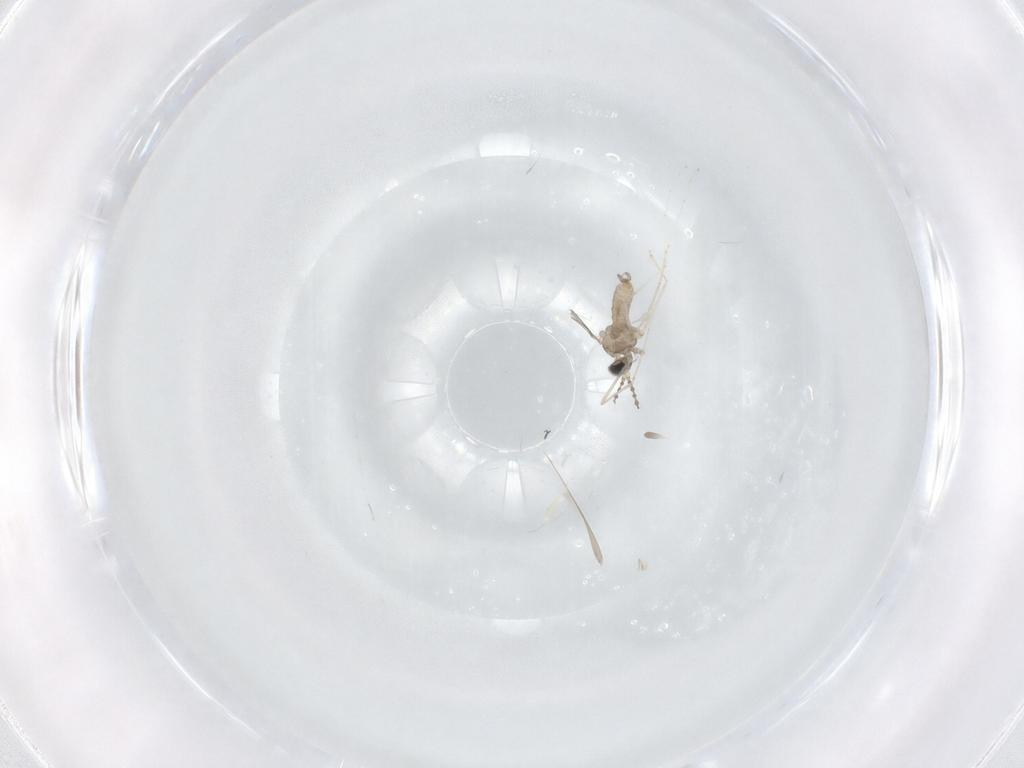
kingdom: Animalia
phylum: Arthropoda
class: Insecta
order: Diptera
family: Cecidomyiidae
